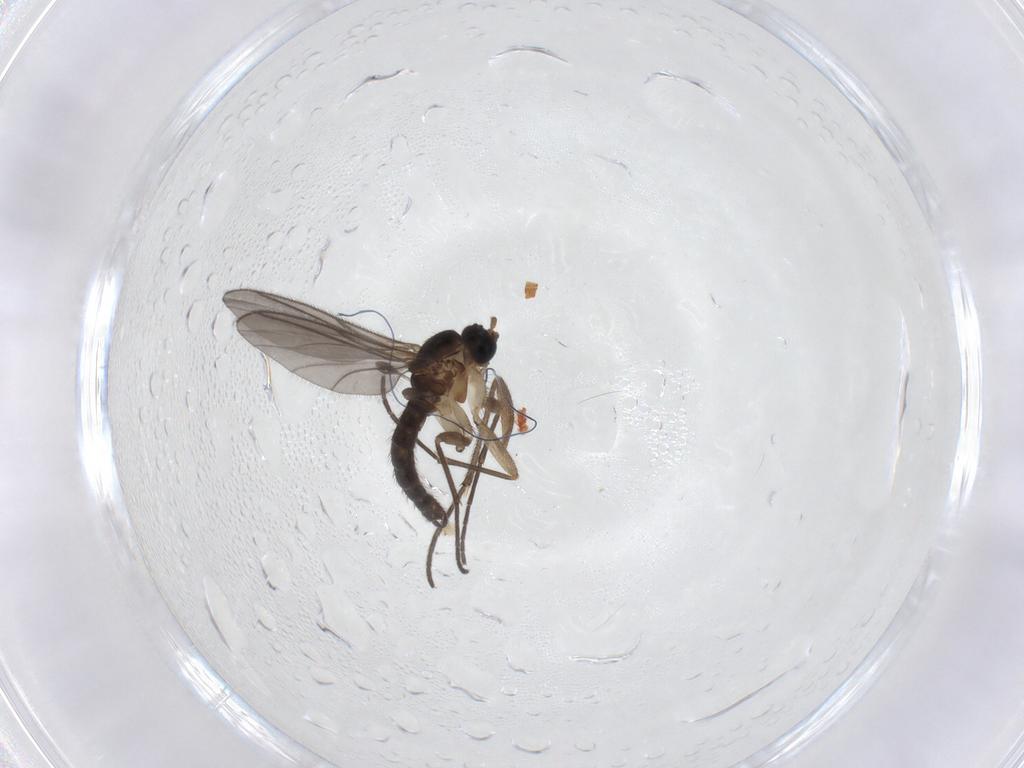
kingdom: Animalia
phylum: Arthropoda
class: Insecta
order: Diptera
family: Sciaridae
